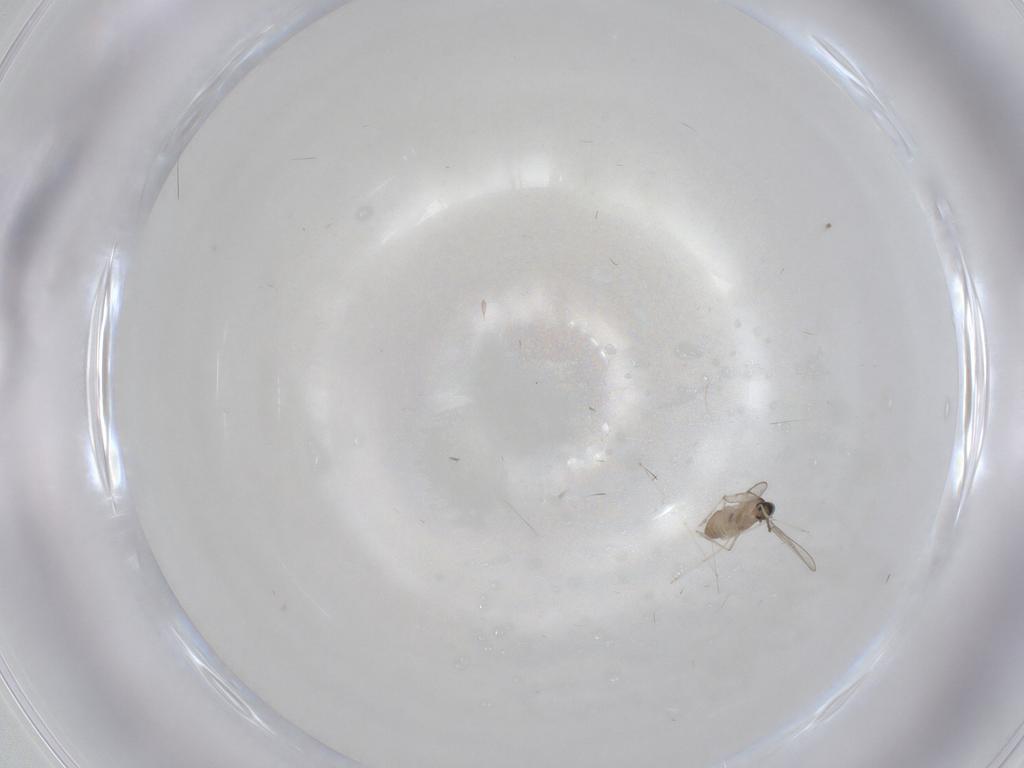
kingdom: Animalia
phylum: Arthropoda
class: Insecta
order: Diptera
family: Cecidomyiidae
